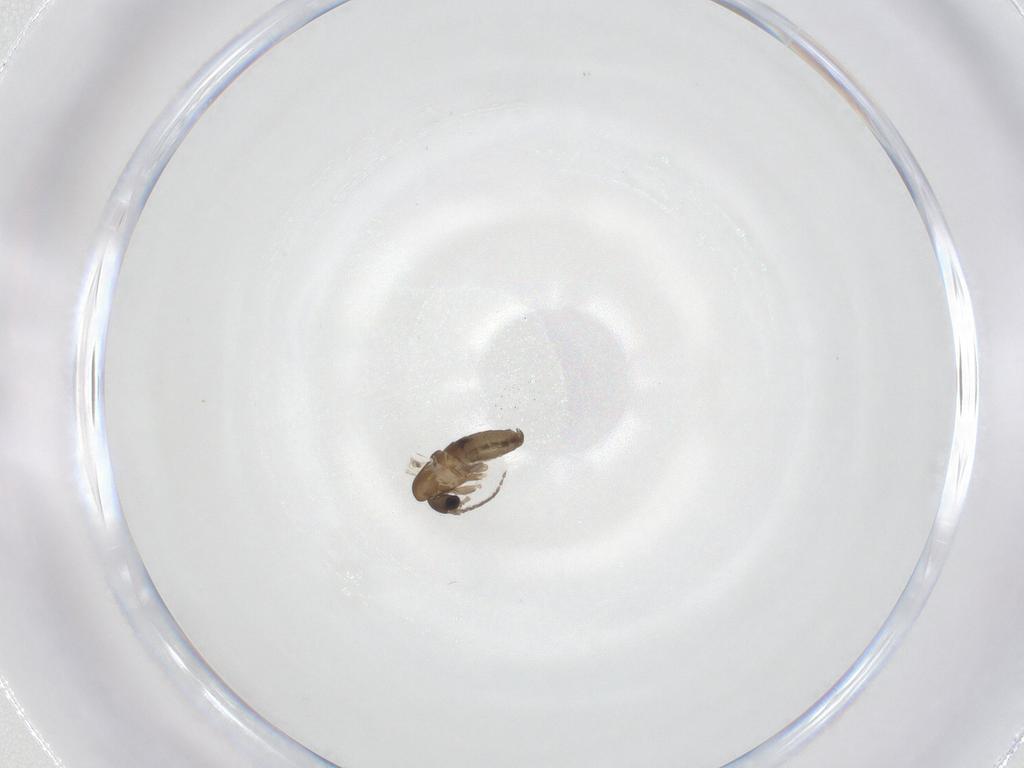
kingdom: Animalia
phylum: Arthropoda
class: Insecta
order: Diptera
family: Psychodidae
